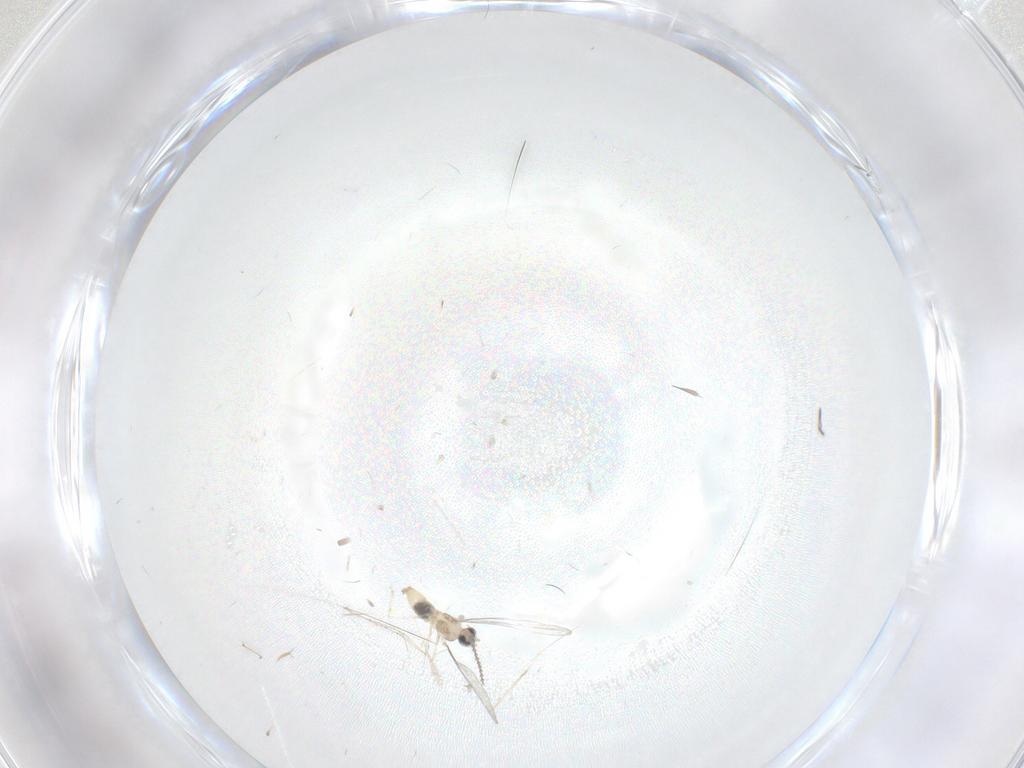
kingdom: Animalia
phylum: Arthropoda
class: Insecta
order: Diptera
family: Cecidomyiidae
